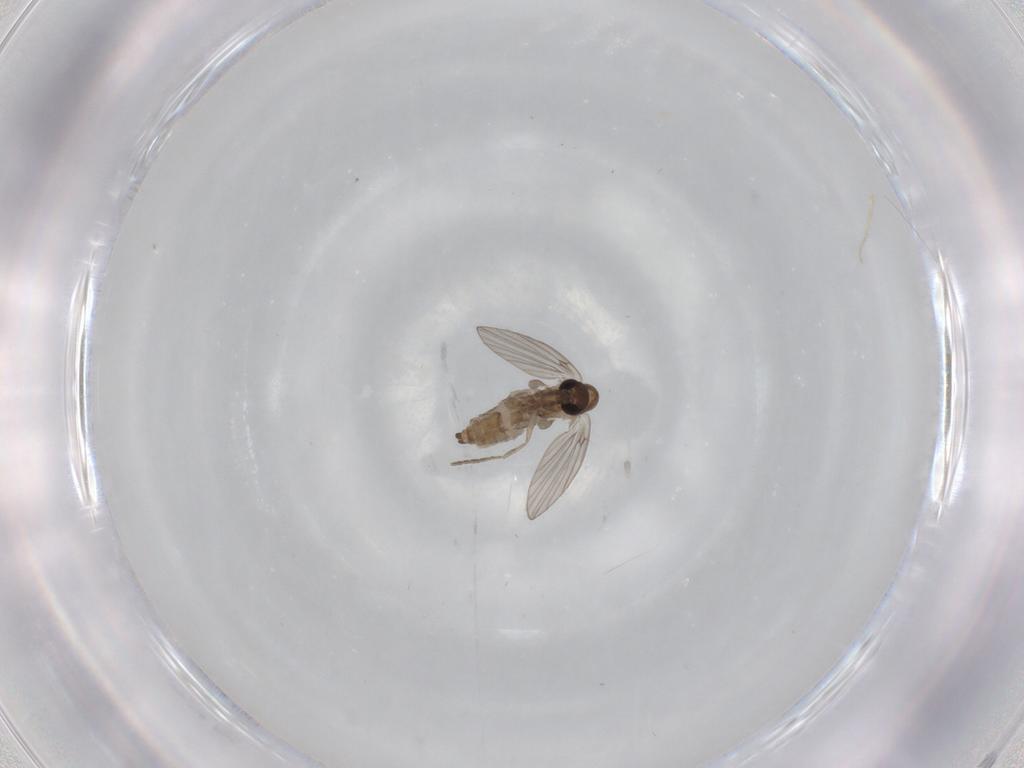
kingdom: Animalia
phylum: Arthropoda
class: Insecta
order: Diptera
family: Cecidomyiidae
